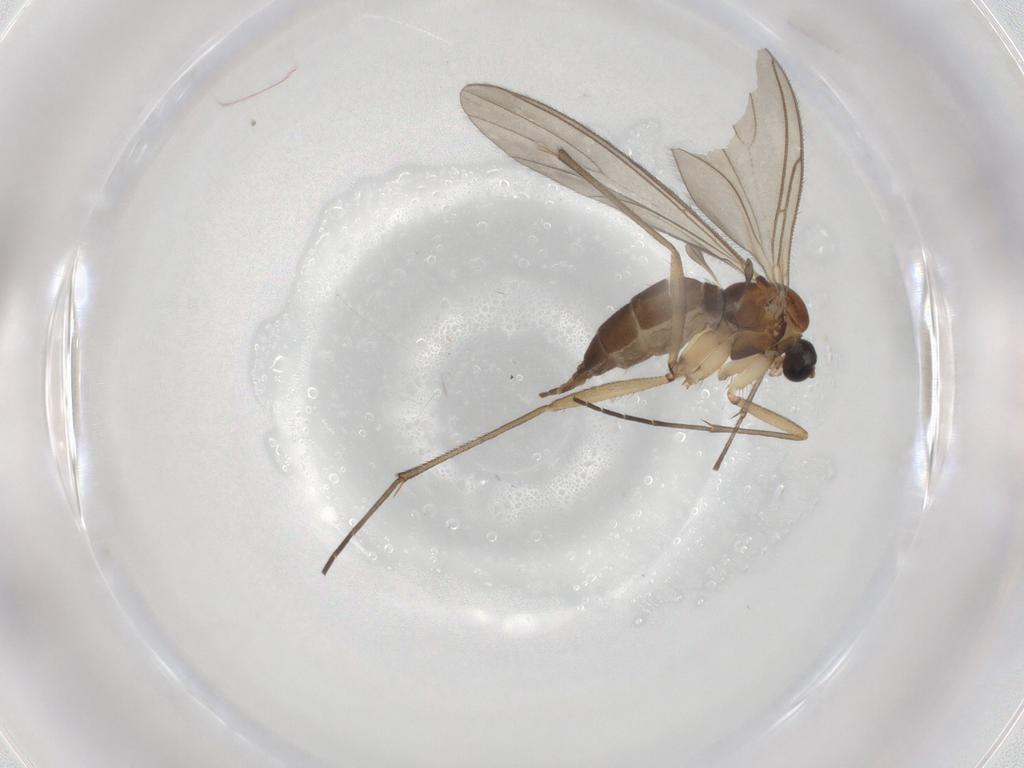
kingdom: Animalia
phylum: Arthropoda
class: Insecta
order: Diptera
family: Sciaridae
